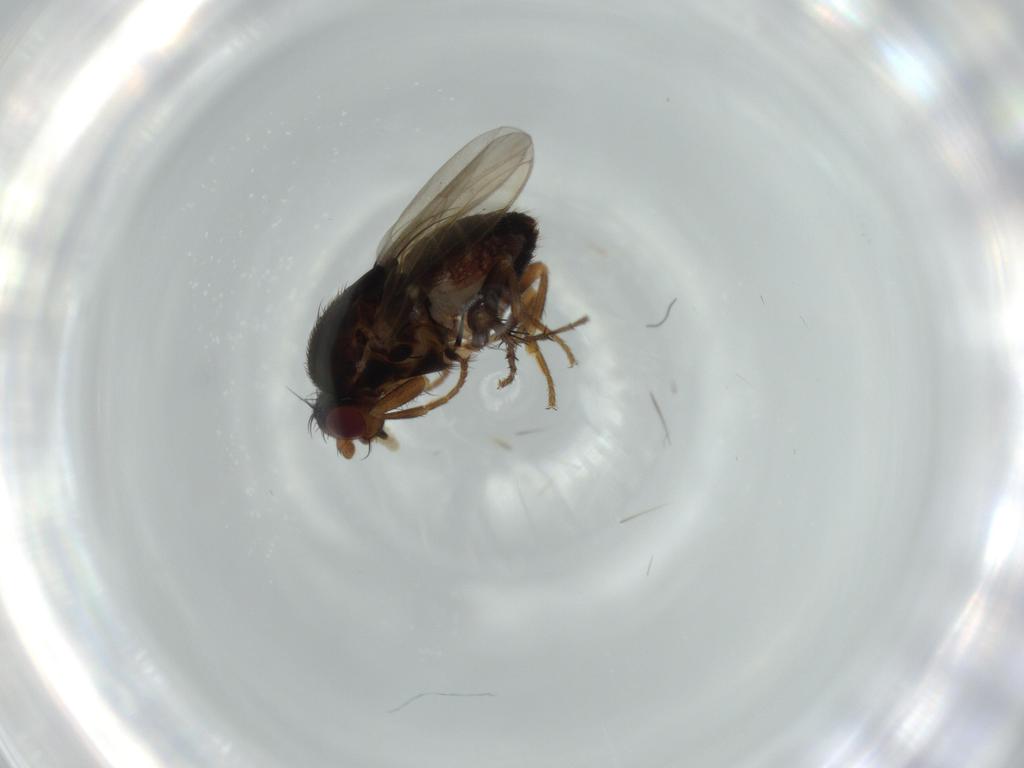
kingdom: Animalia
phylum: Arthropoda
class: Insecta
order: Diptera
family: Sphaeroceridae
